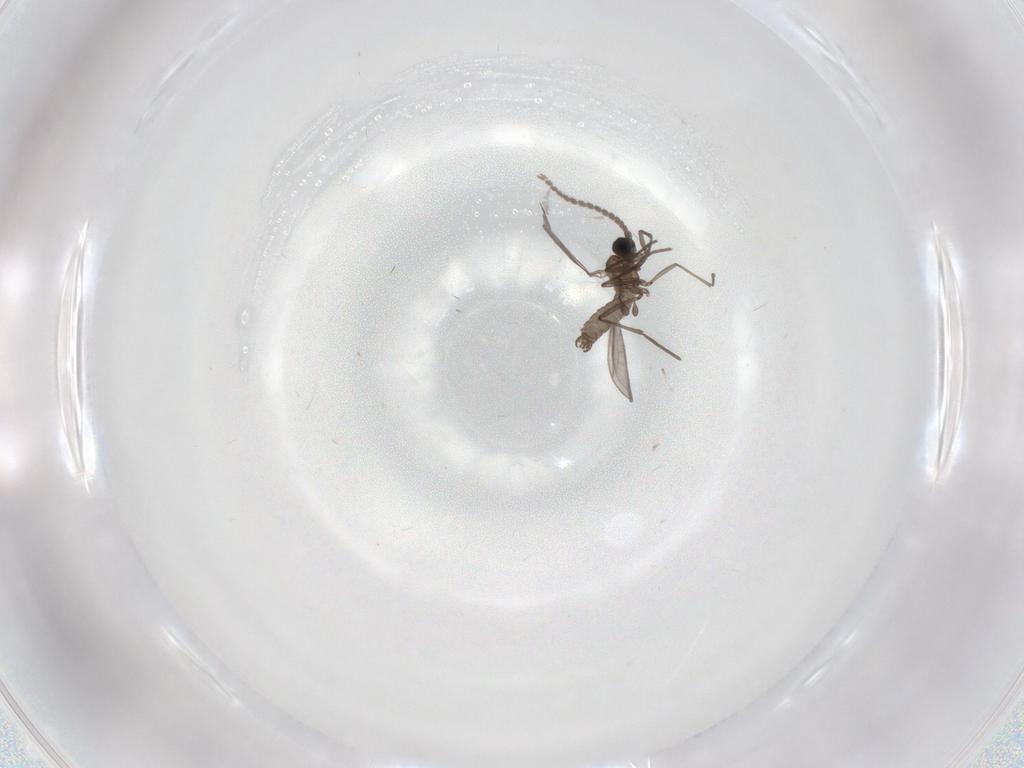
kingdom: Animalia
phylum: Arthropoda
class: Insecta
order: Diptera
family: Sciaridae
